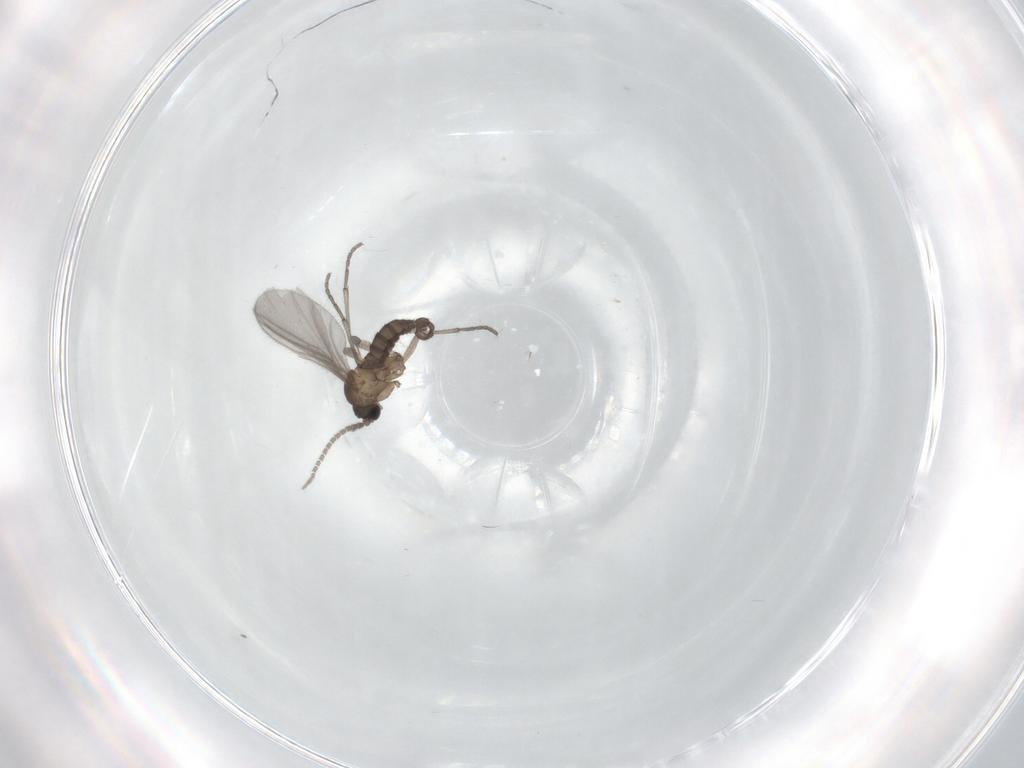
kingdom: Animalia
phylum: Arthropoda
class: Insecta
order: Diptera
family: Sciaridae
